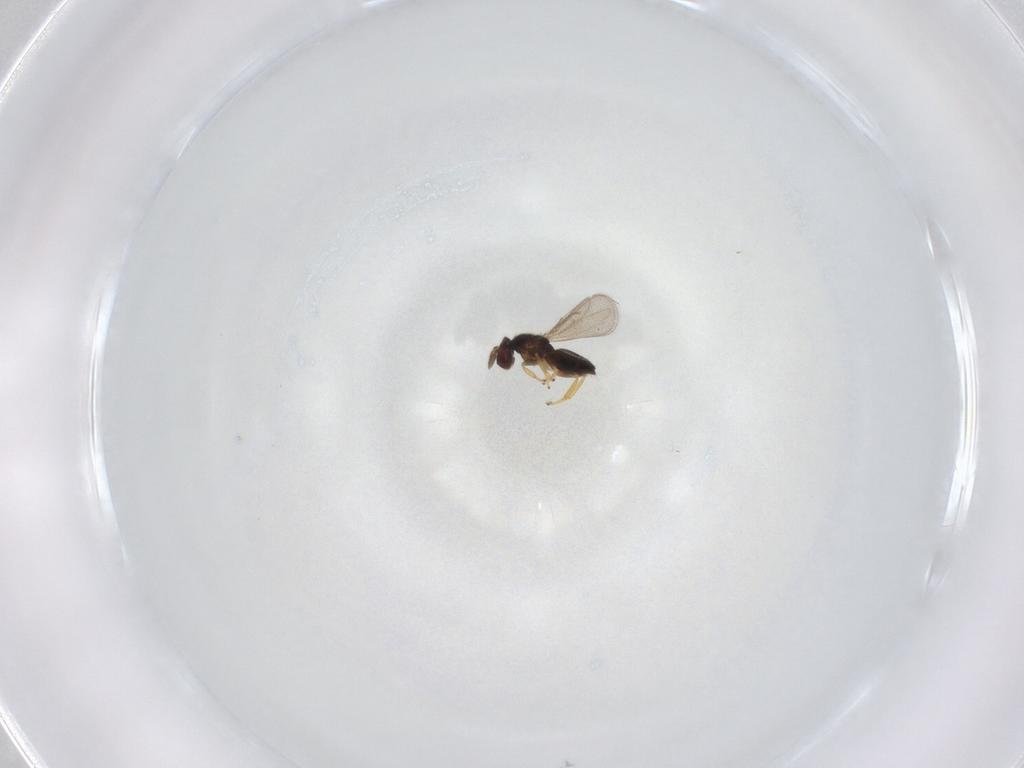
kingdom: Animalia
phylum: Arthropoda
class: Insecta
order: Hymenoptera
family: Eulophidae
